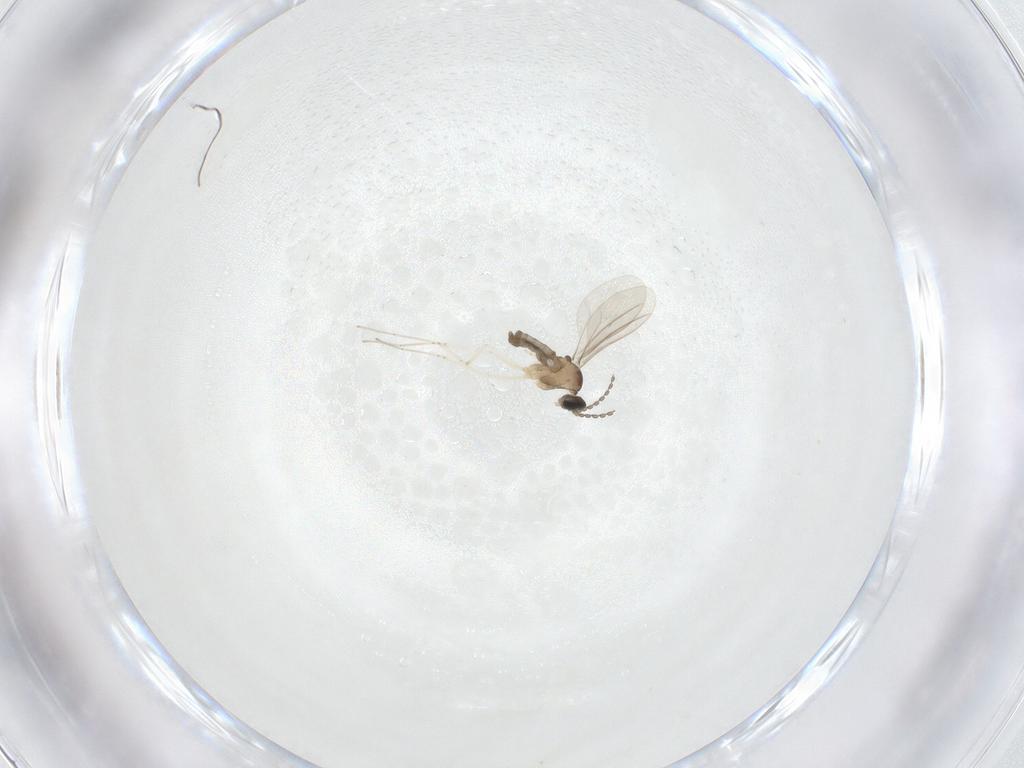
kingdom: Animalia
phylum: Arthropoda
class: Insecta
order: Diptera
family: Cecidomyiidae
